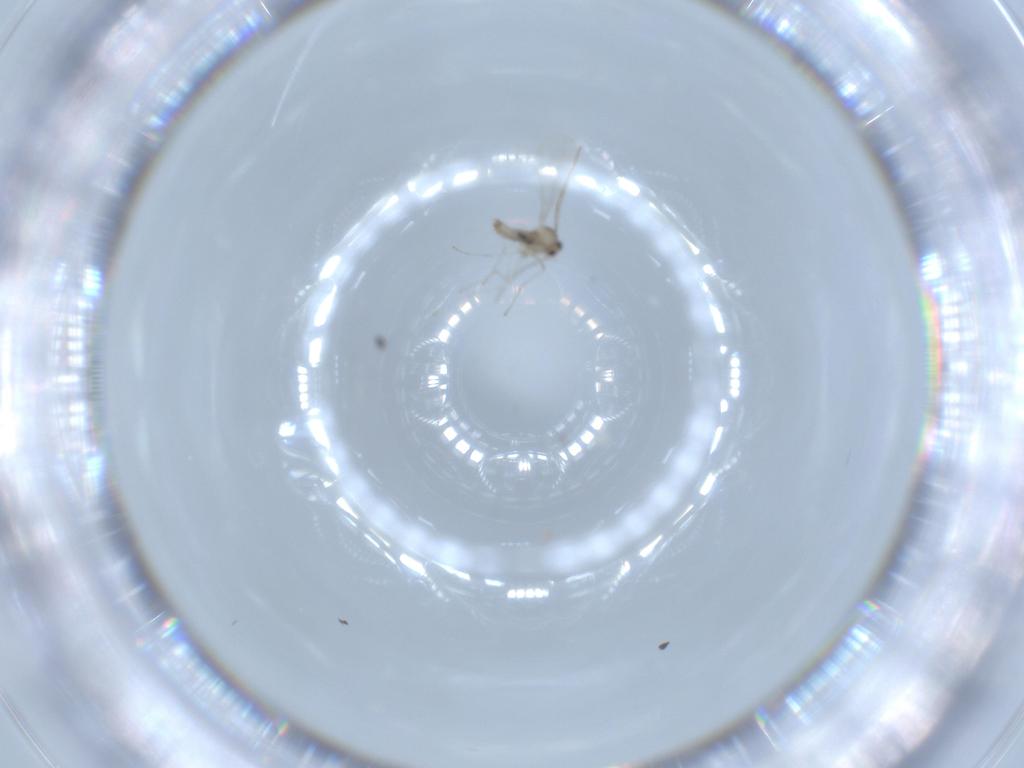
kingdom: Animalia
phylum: Arthropoda
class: Insecta
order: Diptera
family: Cecidomyiidae
